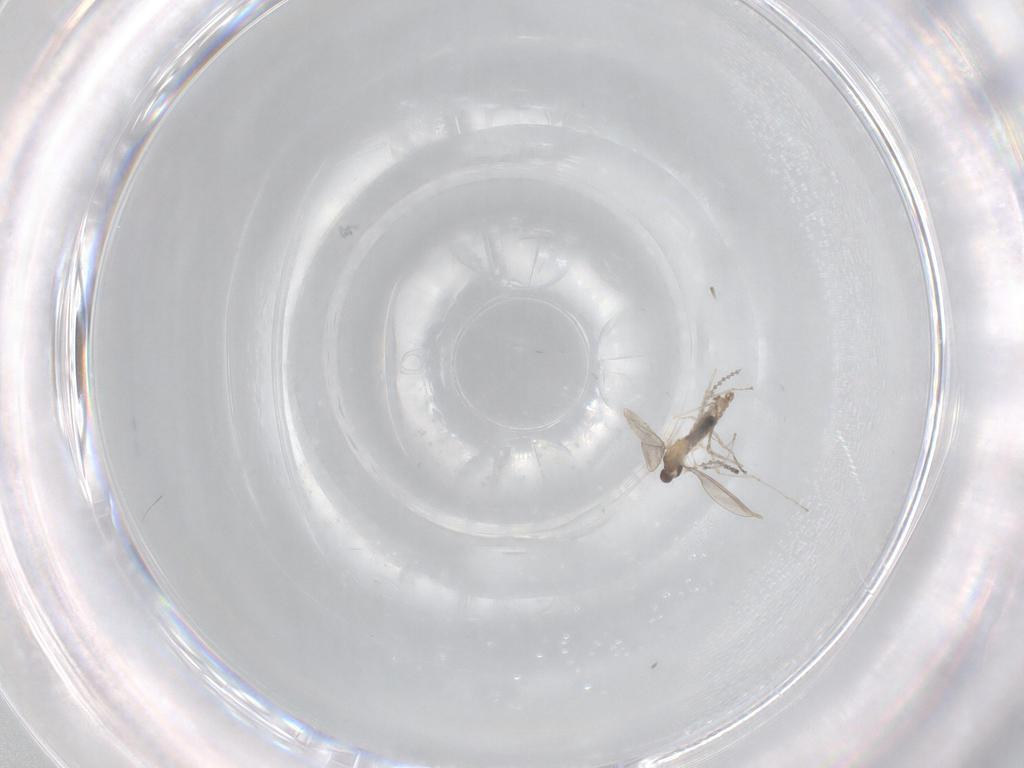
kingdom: Animalia
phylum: Arthropoda
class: Insecta
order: Diptera
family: Cecidomyiidae
